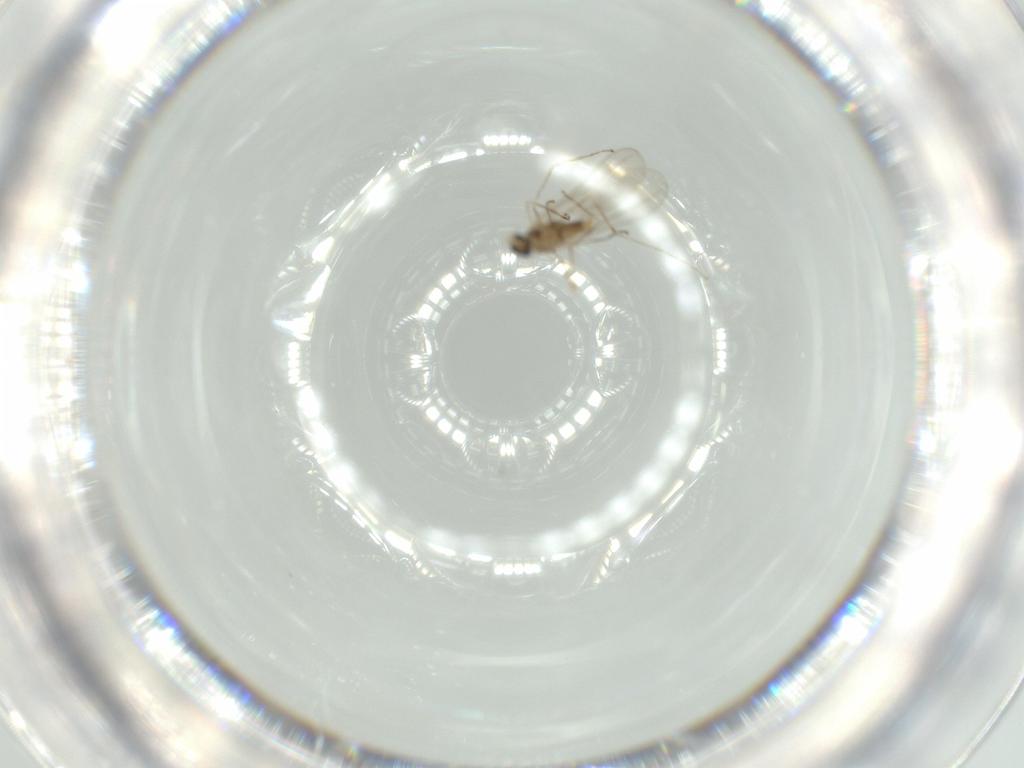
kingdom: Animalia
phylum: Arthropoda
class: Insecta
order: Diptera
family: Cecidomyiidae
